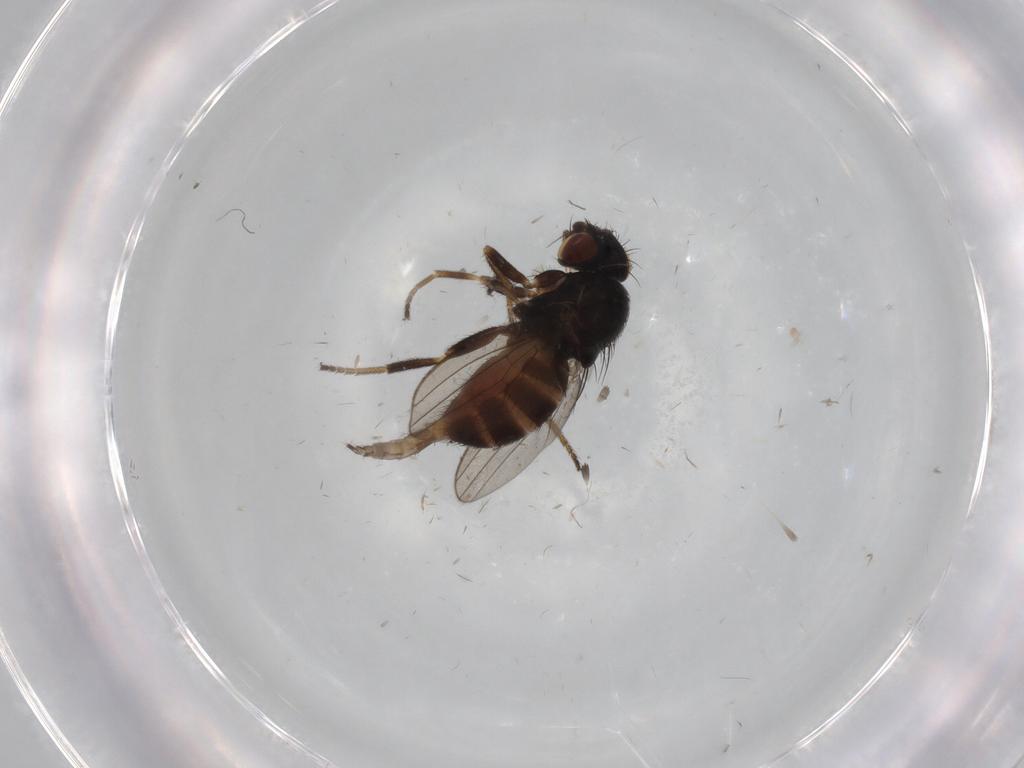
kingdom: Animalia
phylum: Arthropoda
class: Insecta
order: Diptera
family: Milichiidae
